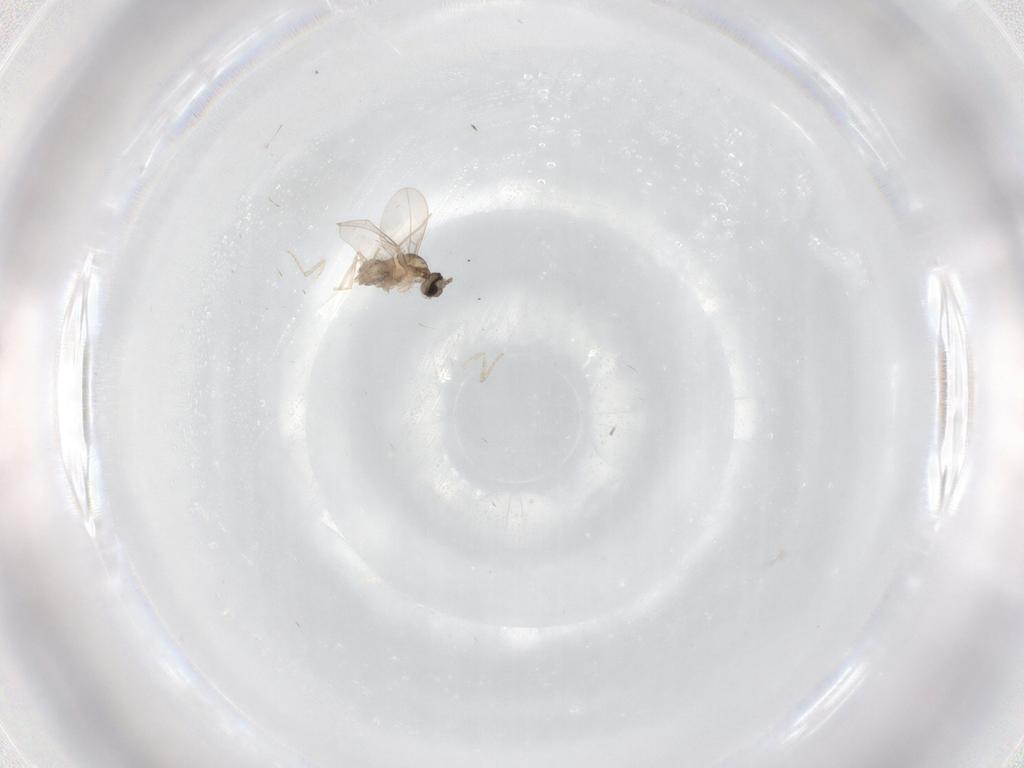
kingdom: Animalia
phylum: Arthropoda
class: Insecta
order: Diptera
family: Cecidomyiidae
